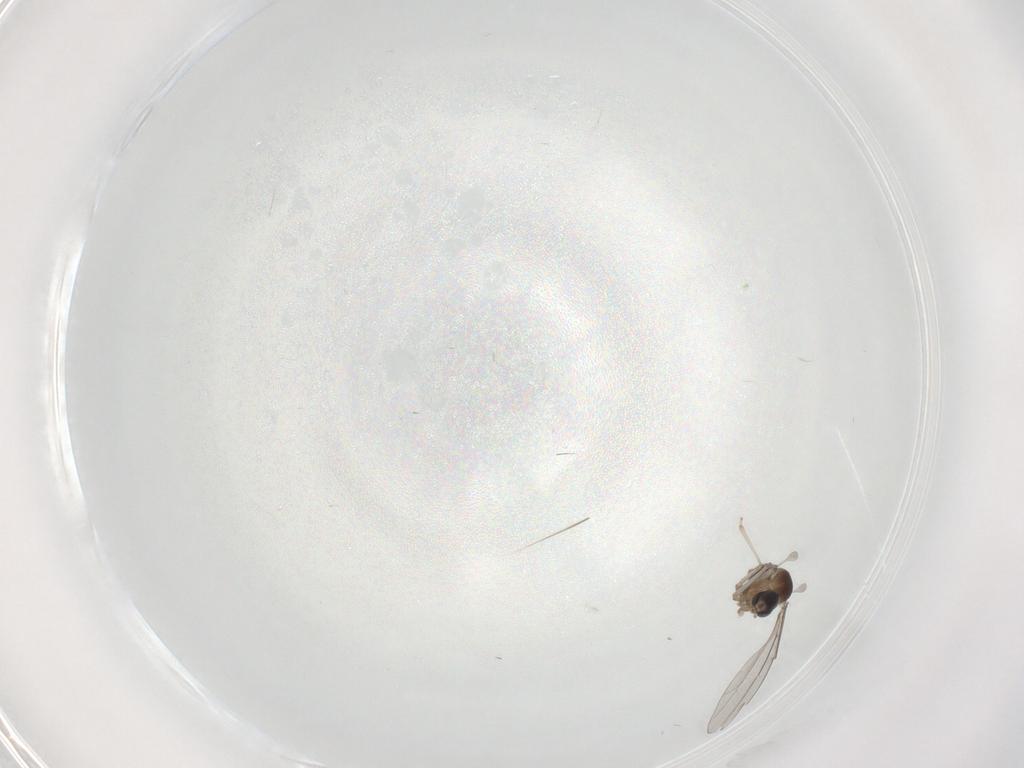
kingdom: Animalia
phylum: Arthropoda
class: Insecta
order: Diptera
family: Cecidomyiidae
